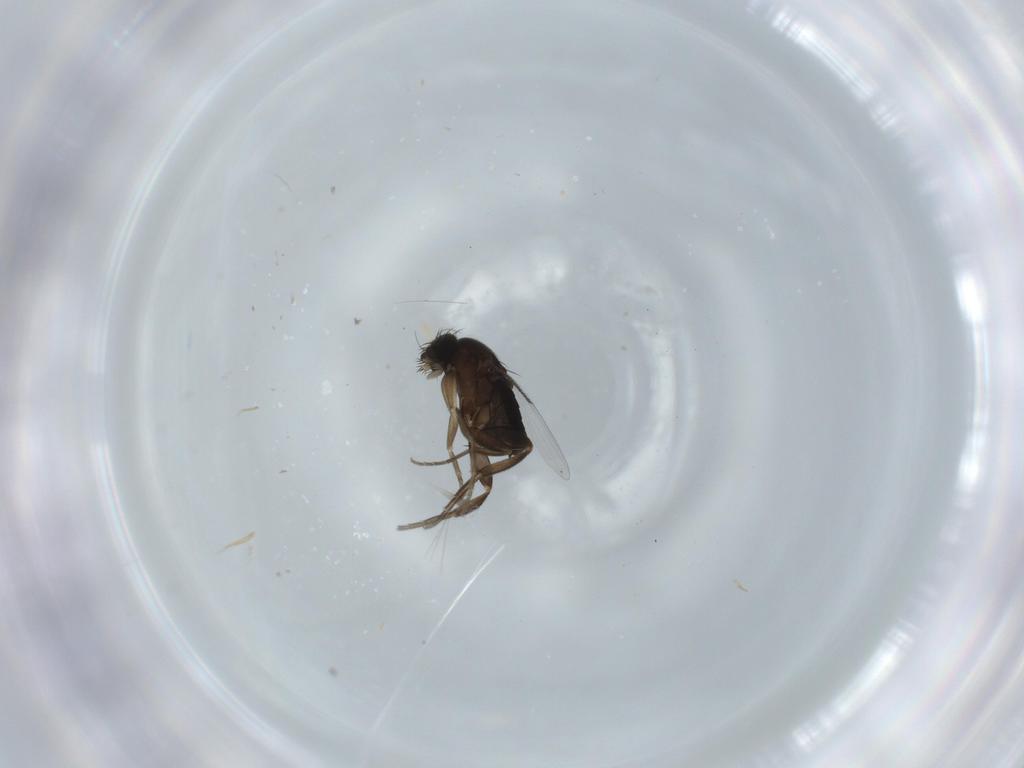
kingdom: Animalia
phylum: Arthropoda
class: Insecta
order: Diptera
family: Phoridae
